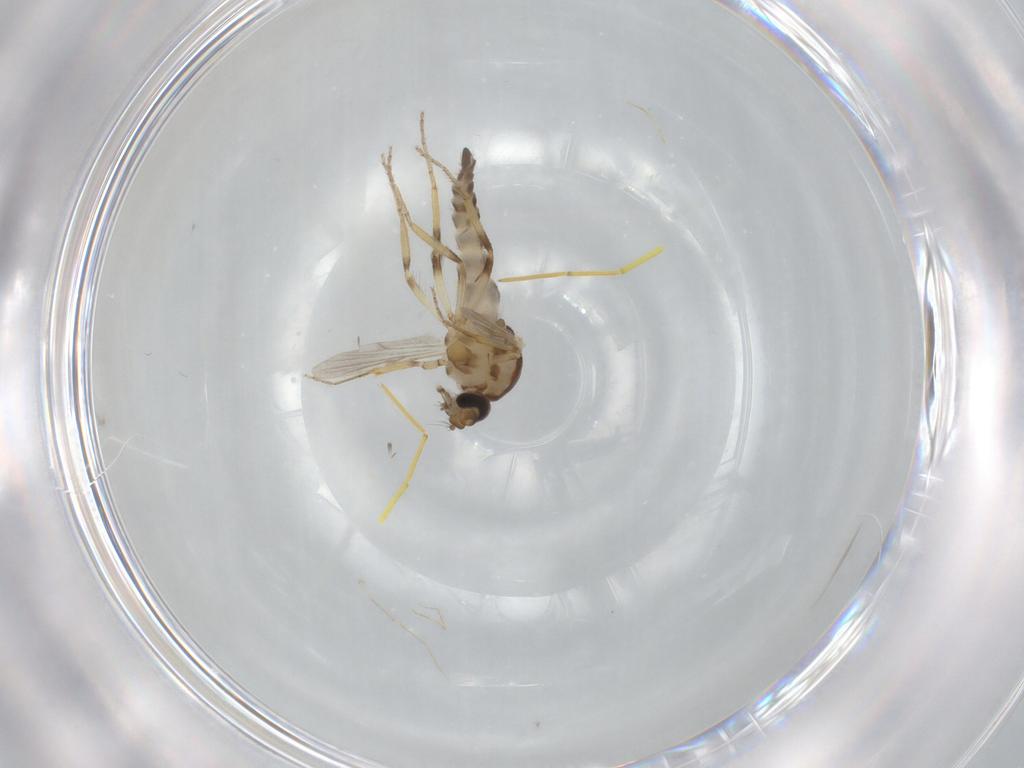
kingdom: Animalia
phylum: Arthropoda
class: Insecta
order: Diptera
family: Ceratopogonidae
